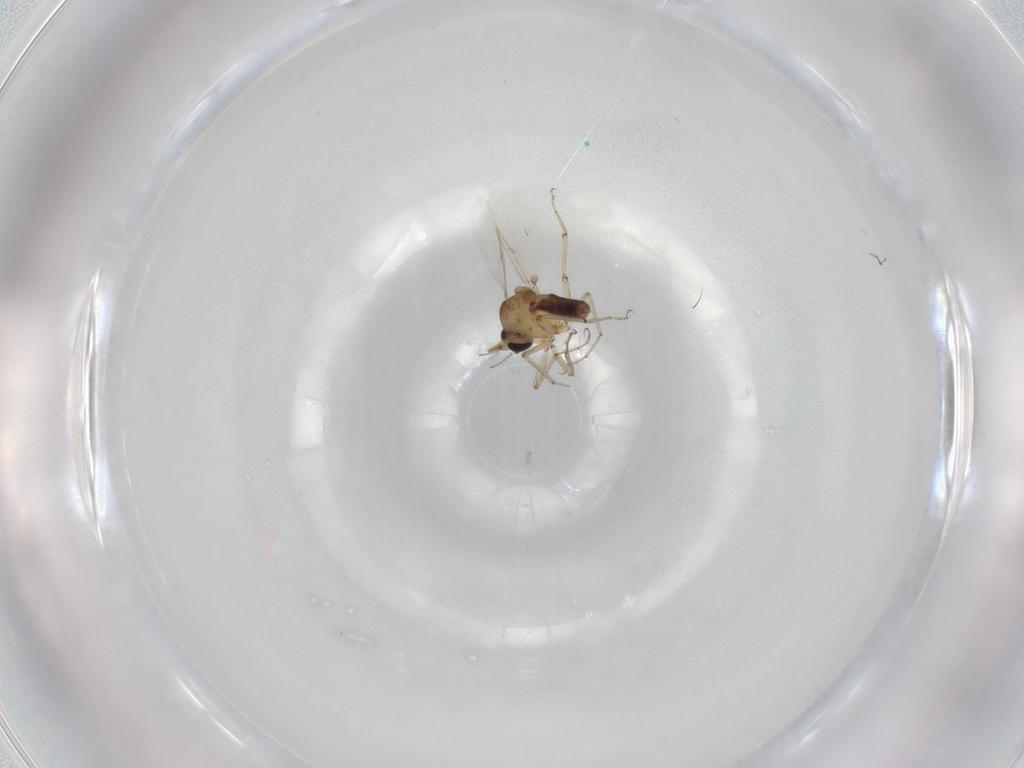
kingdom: Animalia
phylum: Arthropoda
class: Insecta
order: Diptera
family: Ceratopogonidae
